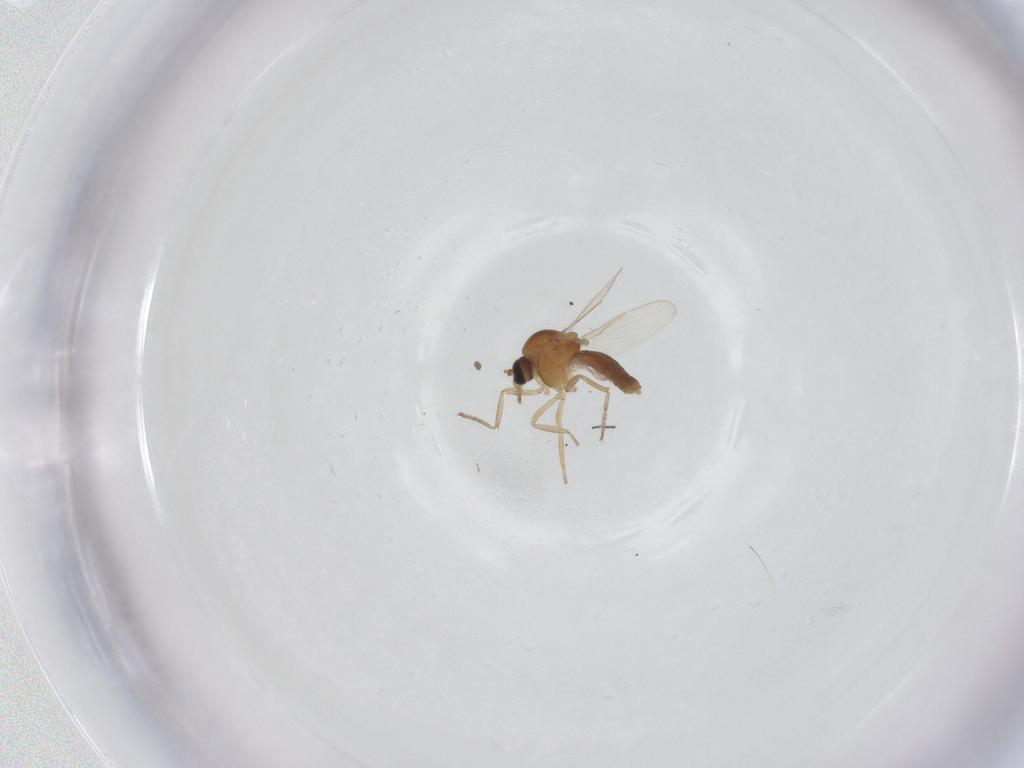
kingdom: Animalia
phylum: Arthropoda
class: Insecta
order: Diptera
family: Ceratopogonidae
